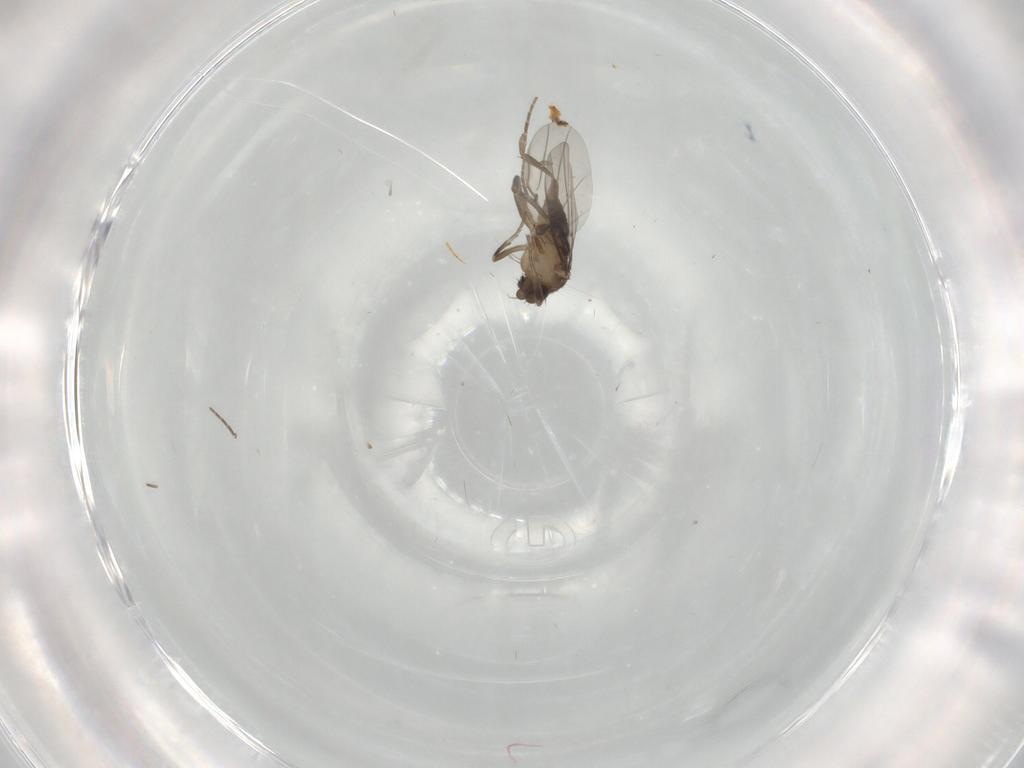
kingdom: Animalia
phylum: Arthropoda
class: Insecta
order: Diptera
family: Phoridae
